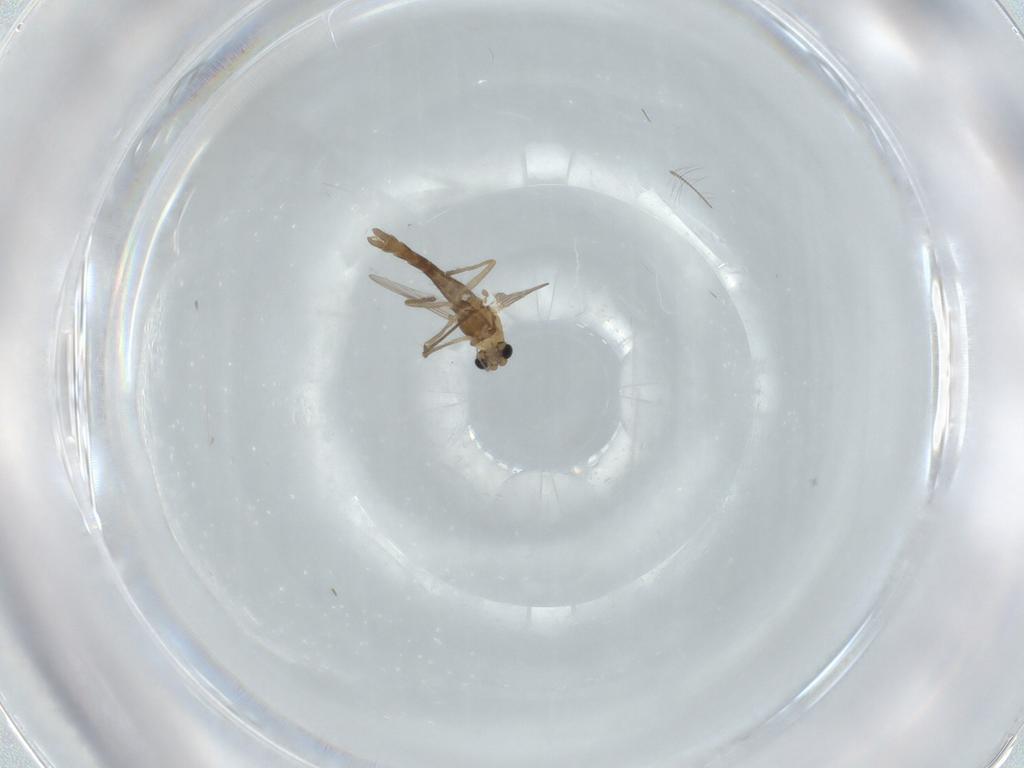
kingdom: Animalia
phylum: Arthropoda
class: Insecta
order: Diptera
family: Chironomidae
